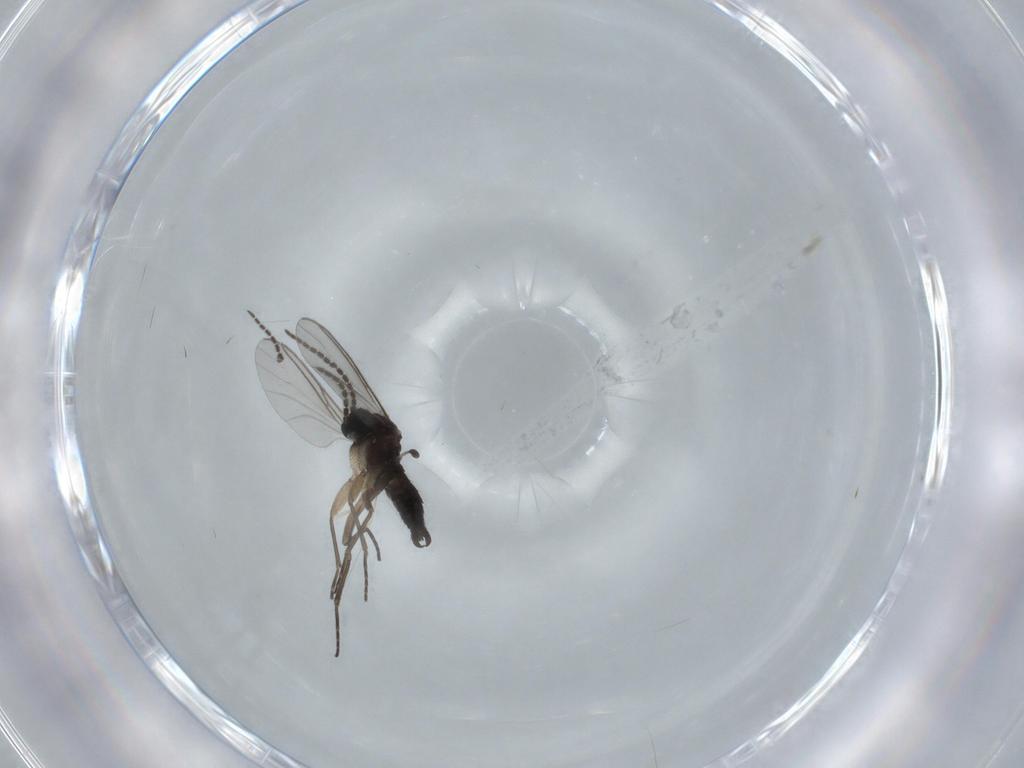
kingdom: Animalia
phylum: Arthropoda
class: Insecta
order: Diptera
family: Sciaridae
